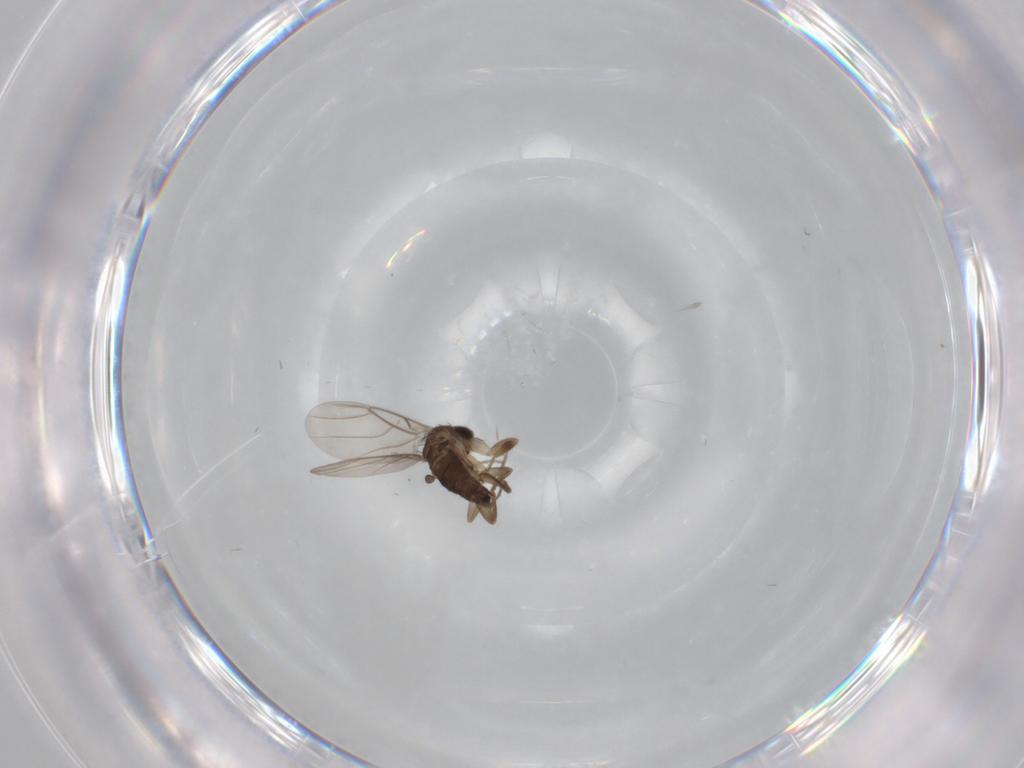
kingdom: Animalia
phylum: Arthropoda
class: Insecta
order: Diptera
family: Phoridae
